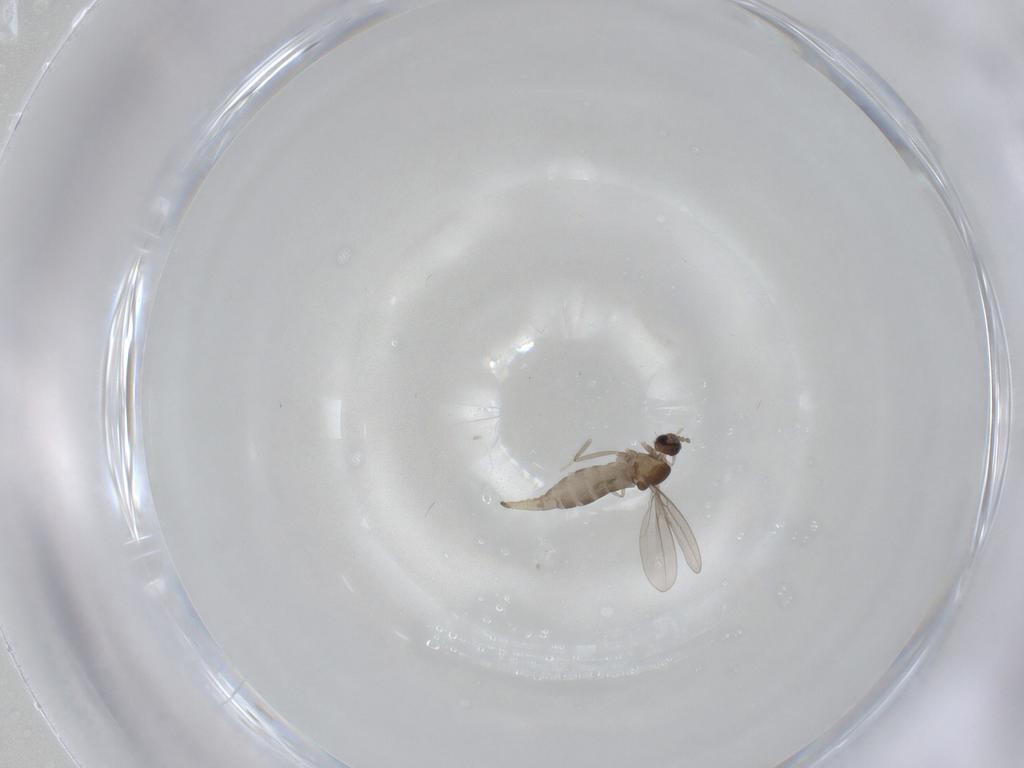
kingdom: Animalia
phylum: Arthropoda
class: Insecta
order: Diptera
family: Cecidomyiidae
